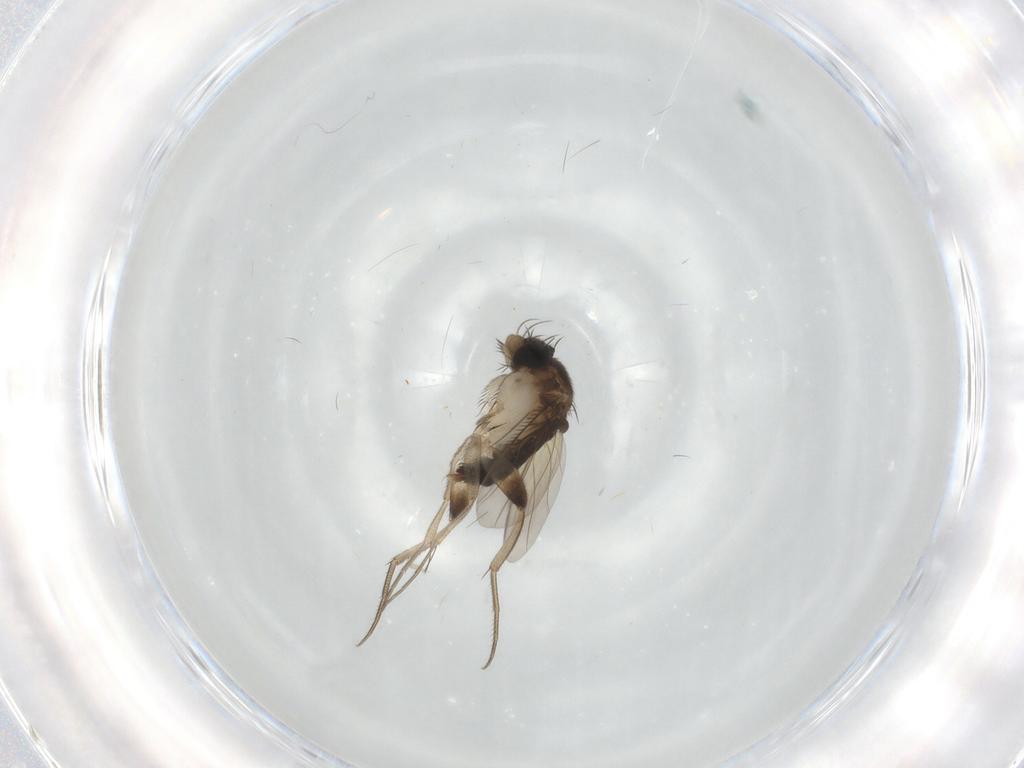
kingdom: Animalia
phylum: Arthropoda
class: Insecta
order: Diptera
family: Phoridae
